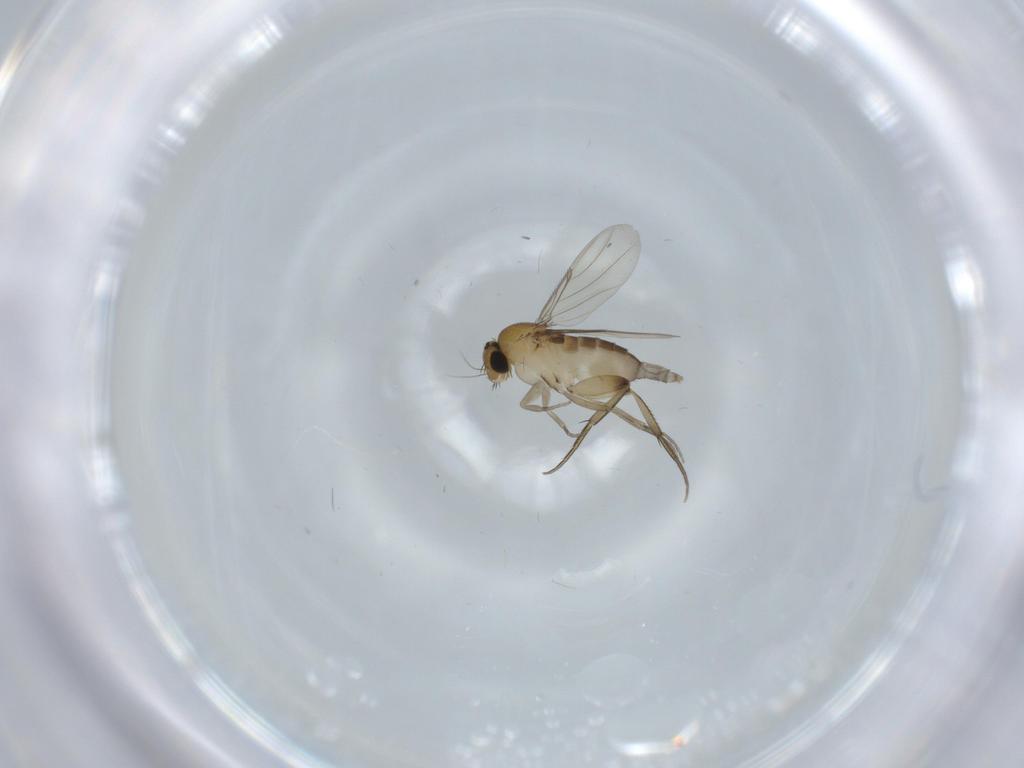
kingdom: Animalia
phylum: Arthropoda
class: Insecta
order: Diptera
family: Phoridae
